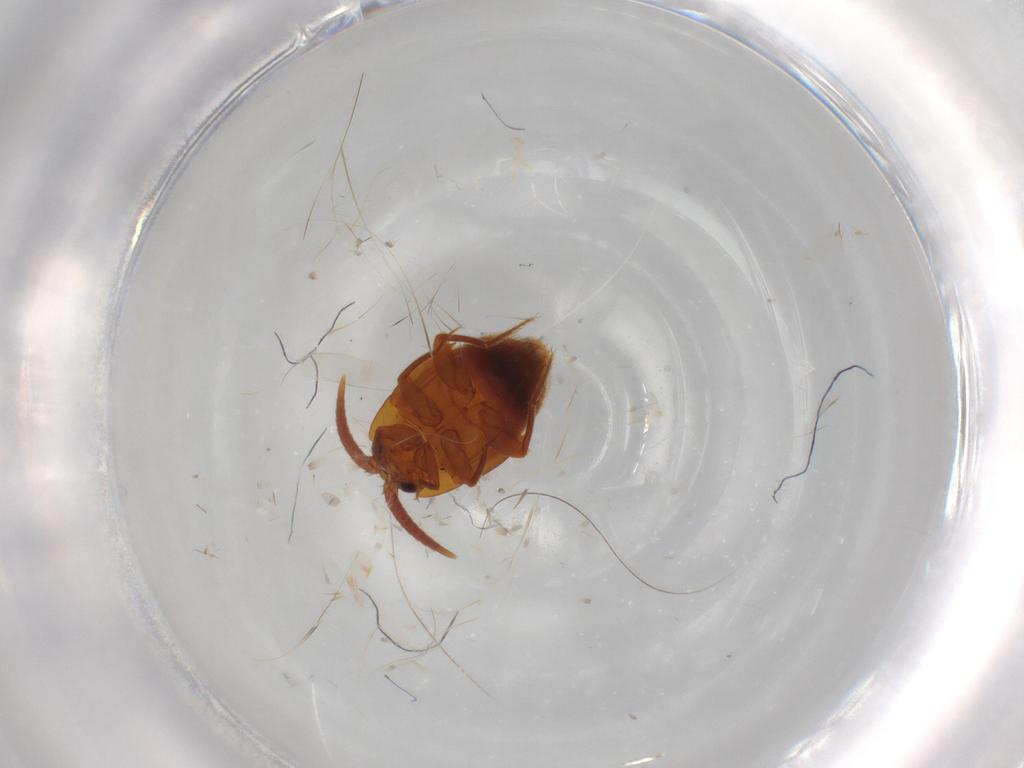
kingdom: Animalia
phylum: Arthropoda
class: Insecta
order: Coleoptera
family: Staphylinidae
